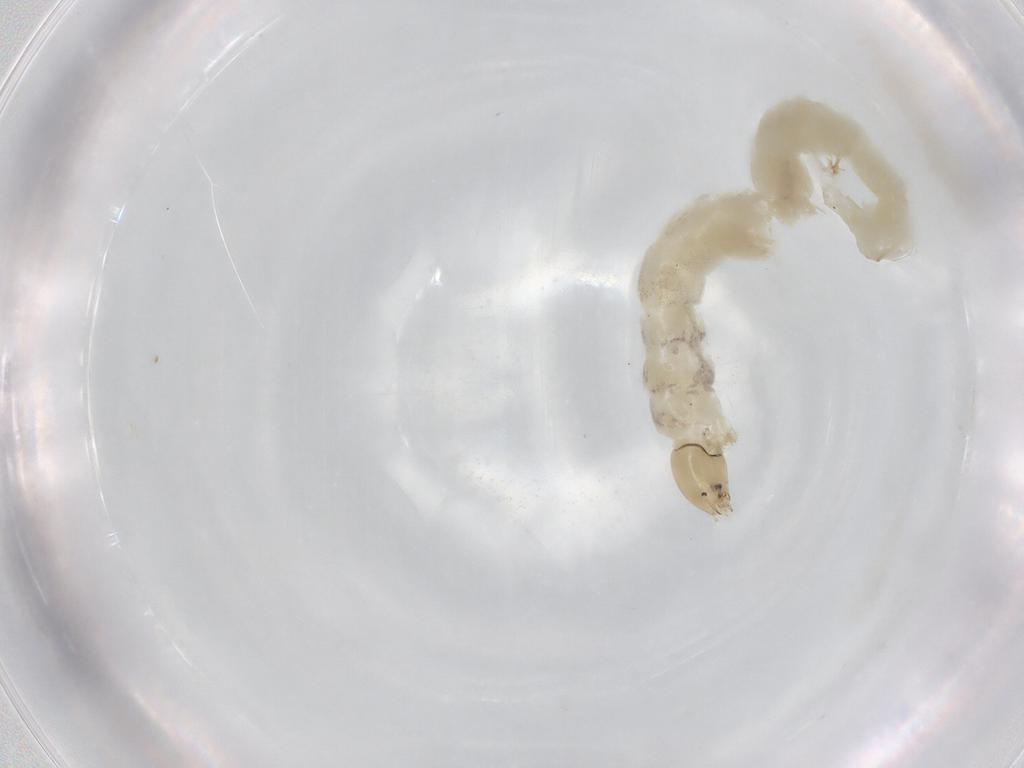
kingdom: Animalia
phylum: Arthropoda
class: Insecta
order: Diptera
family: Chironomidae
